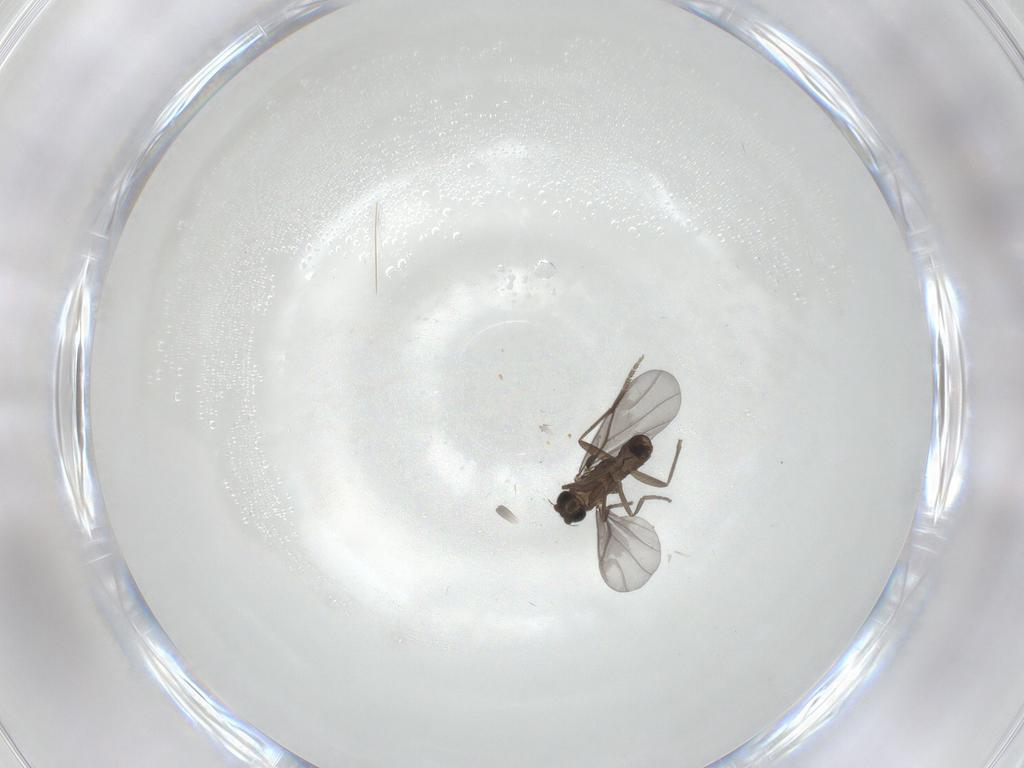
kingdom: Animalia
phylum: Arthropoda
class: Insecta
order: Diptera
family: Phoridae
